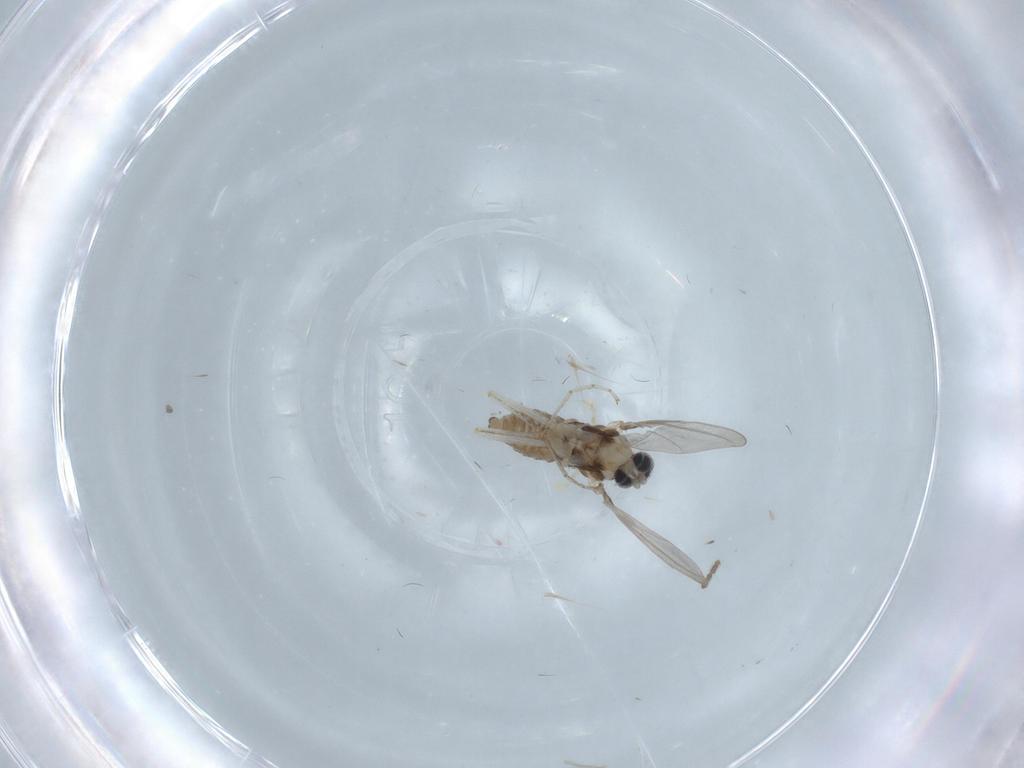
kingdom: Animalia
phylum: Arthropoda
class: Insecta
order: Diptera
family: Cecidomyiidae
